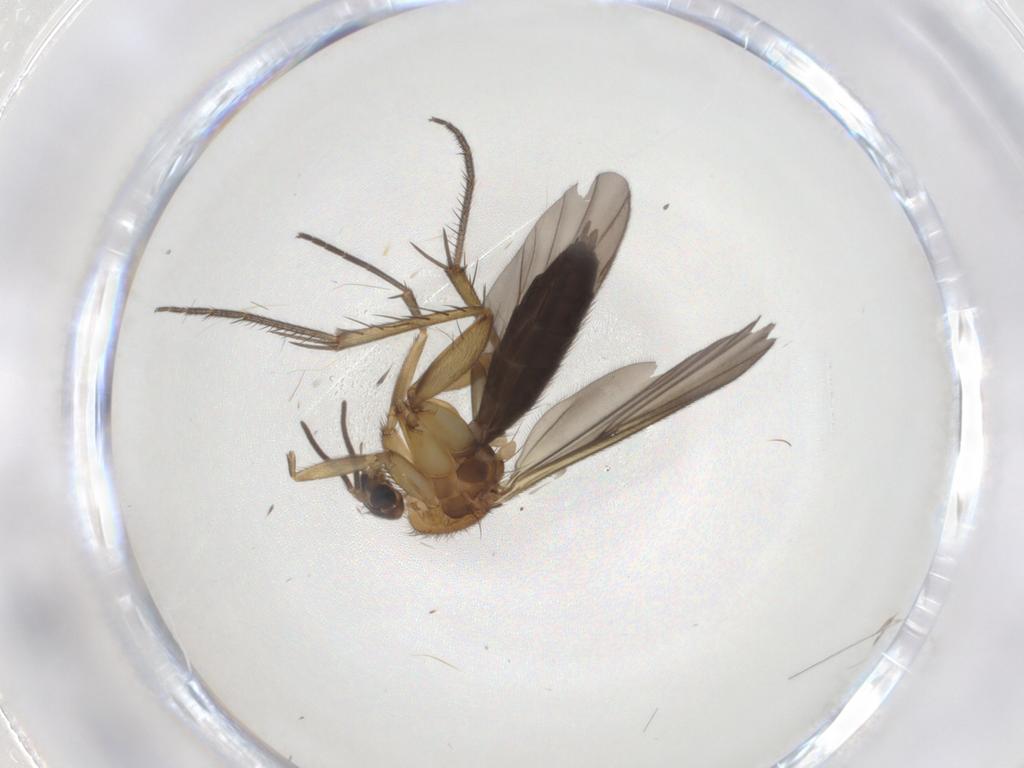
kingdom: Animalia
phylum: Arthropoda
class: Insecta
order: Diptera
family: Mycetophilidae
